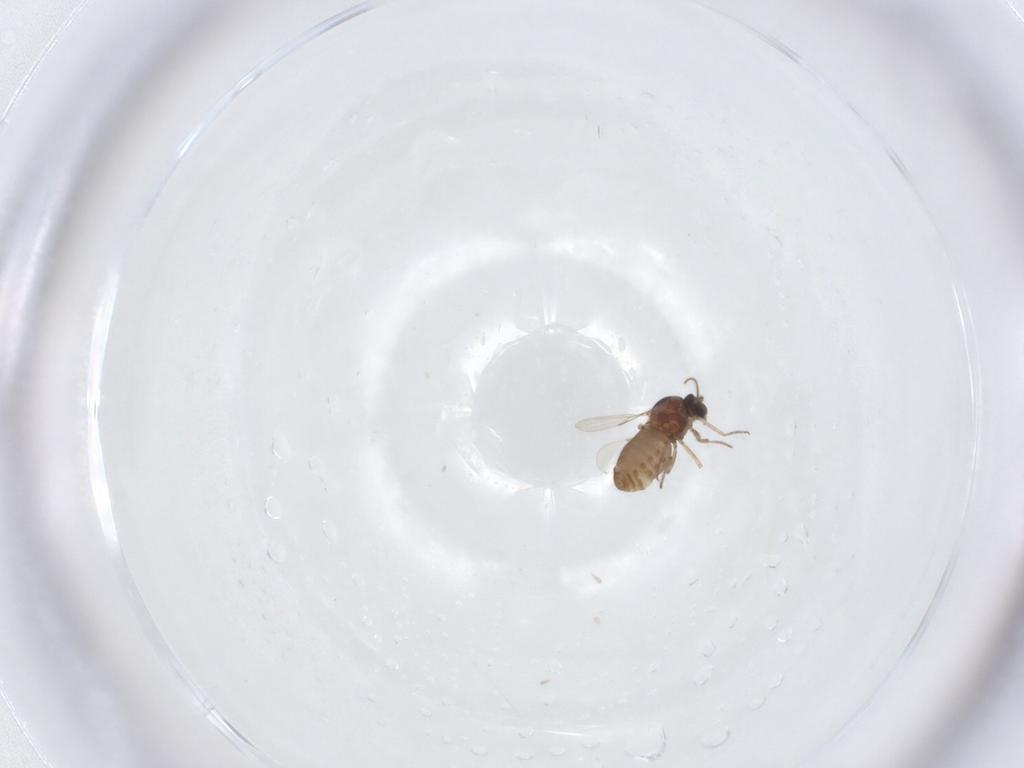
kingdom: Animalia
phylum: Arthropoda
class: Insecta
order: Diptera
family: Ceratopogonidae
